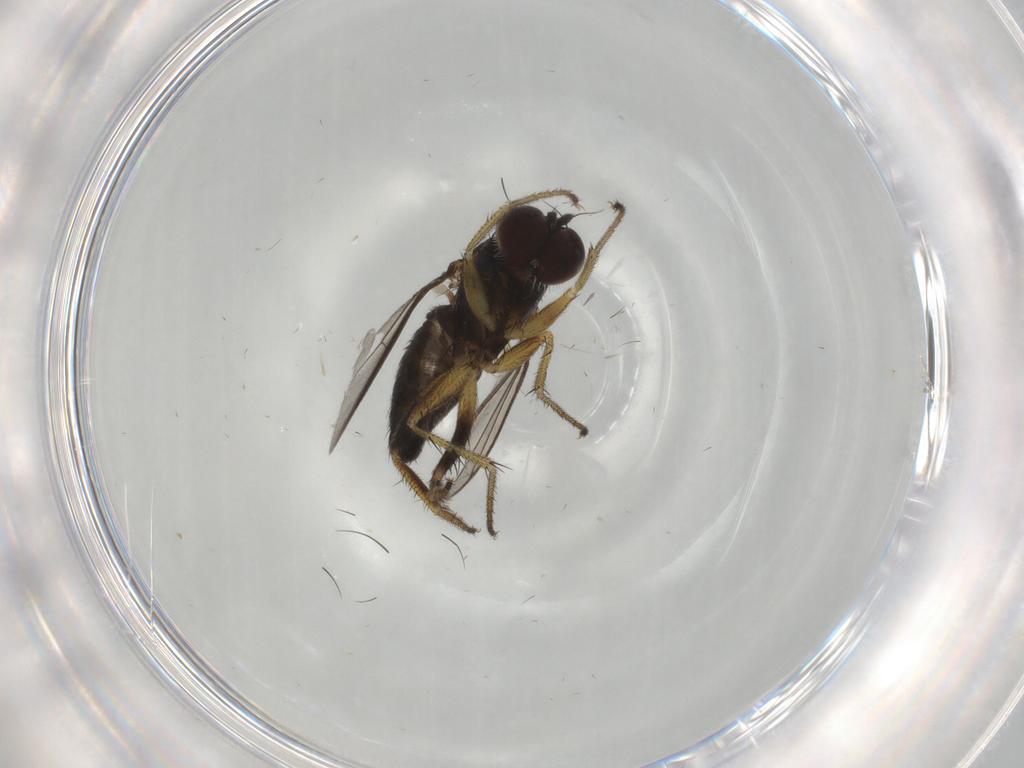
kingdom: Animalia
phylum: Arthropoda
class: Insecta
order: Diptera
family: Dolichopodidae
